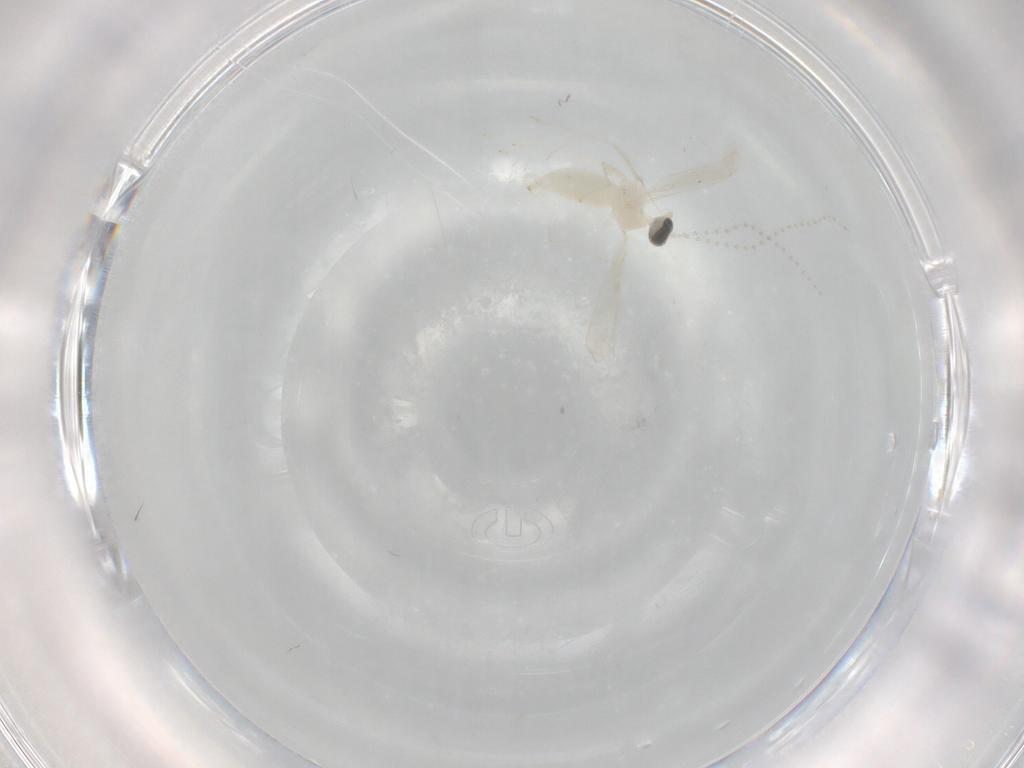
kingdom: Animalia
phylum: Arthropoda
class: Insecta
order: Diptera
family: Cecidomyiidae
